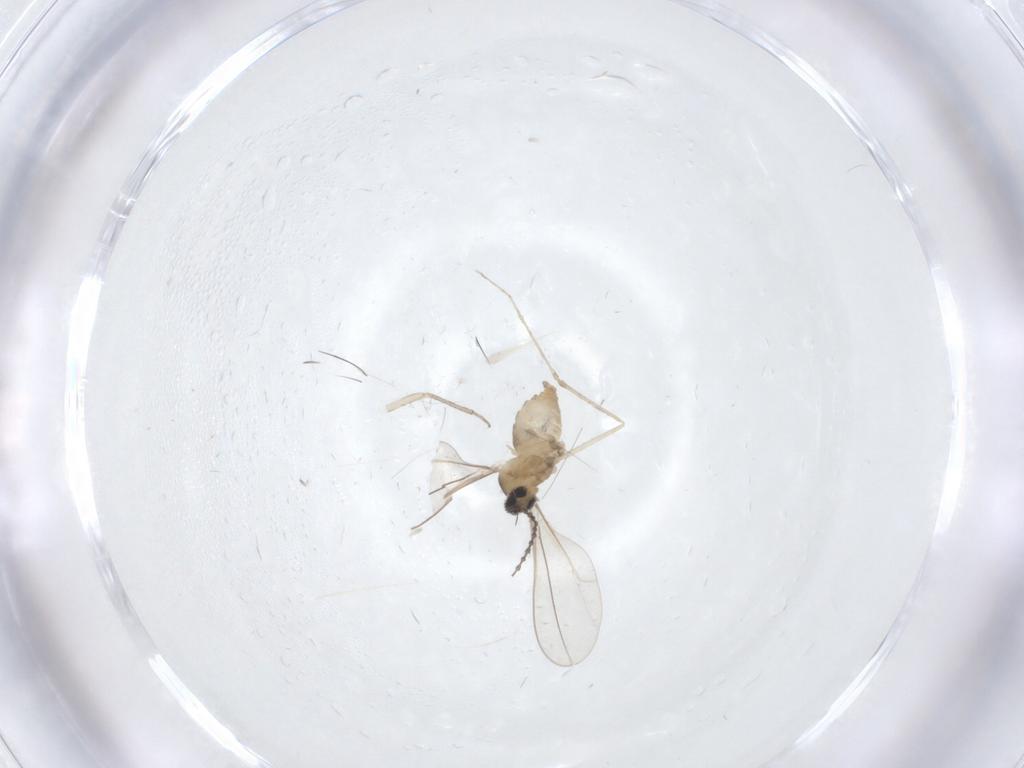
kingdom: Animalia
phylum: Arthropoda
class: Insecta
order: Diptera
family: Cecidomyiidae
